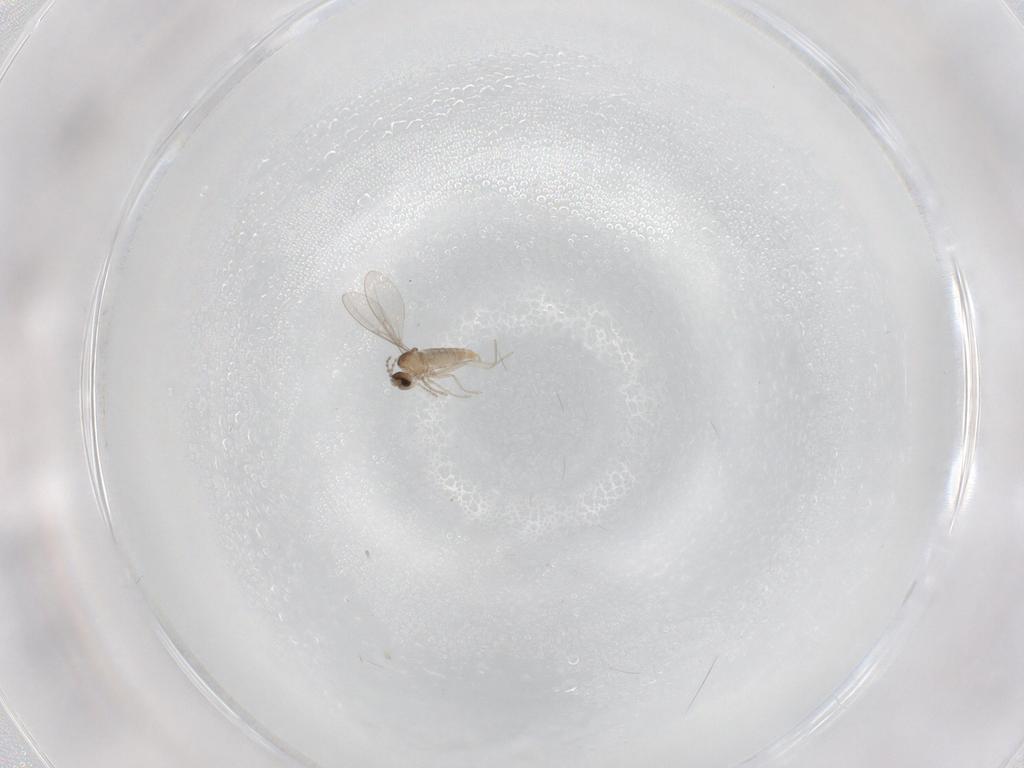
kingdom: Animalia
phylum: Arthropoda
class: Insecta
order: Diptera
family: Cecidomyiidae
